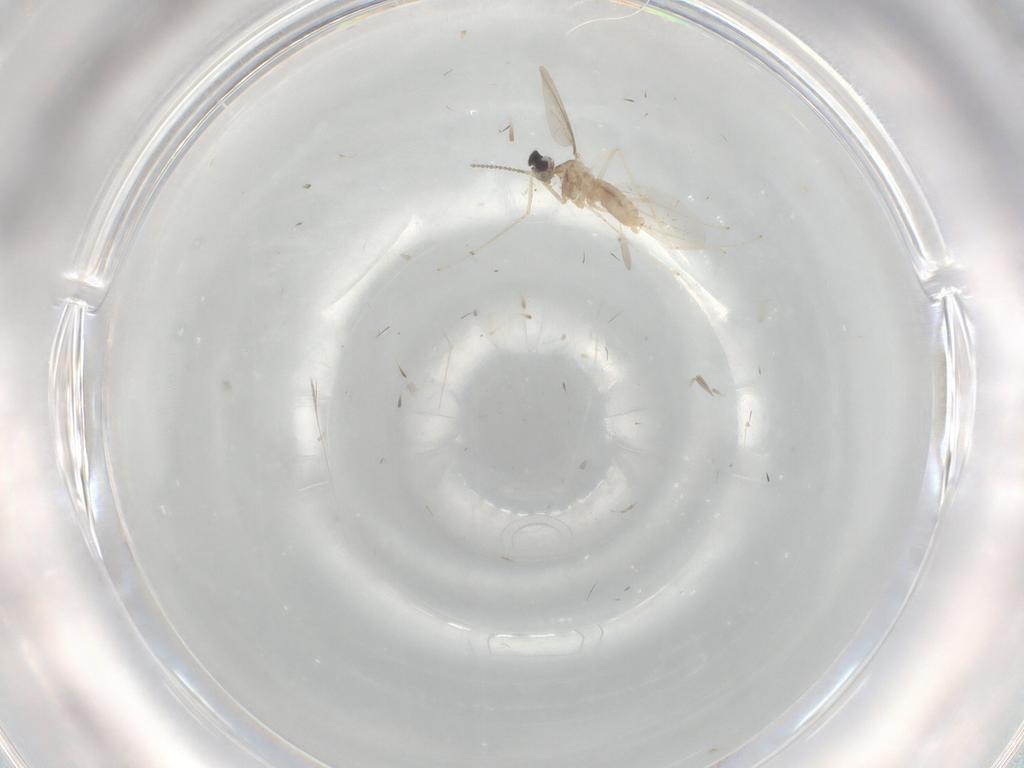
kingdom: Animalia
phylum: Arthropoda
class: Insecta
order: Diptera
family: Cecidomyiidae
